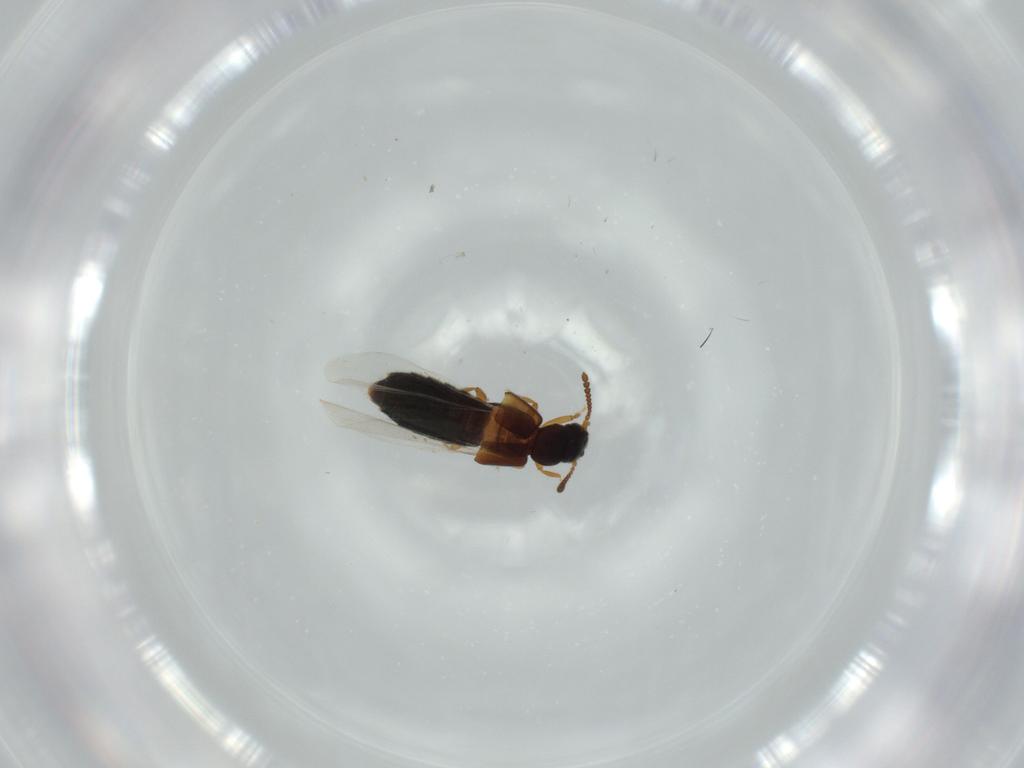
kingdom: Animalia
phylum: Arthropoda
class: Insecta
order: Coleoptera
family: Staphylinidae
